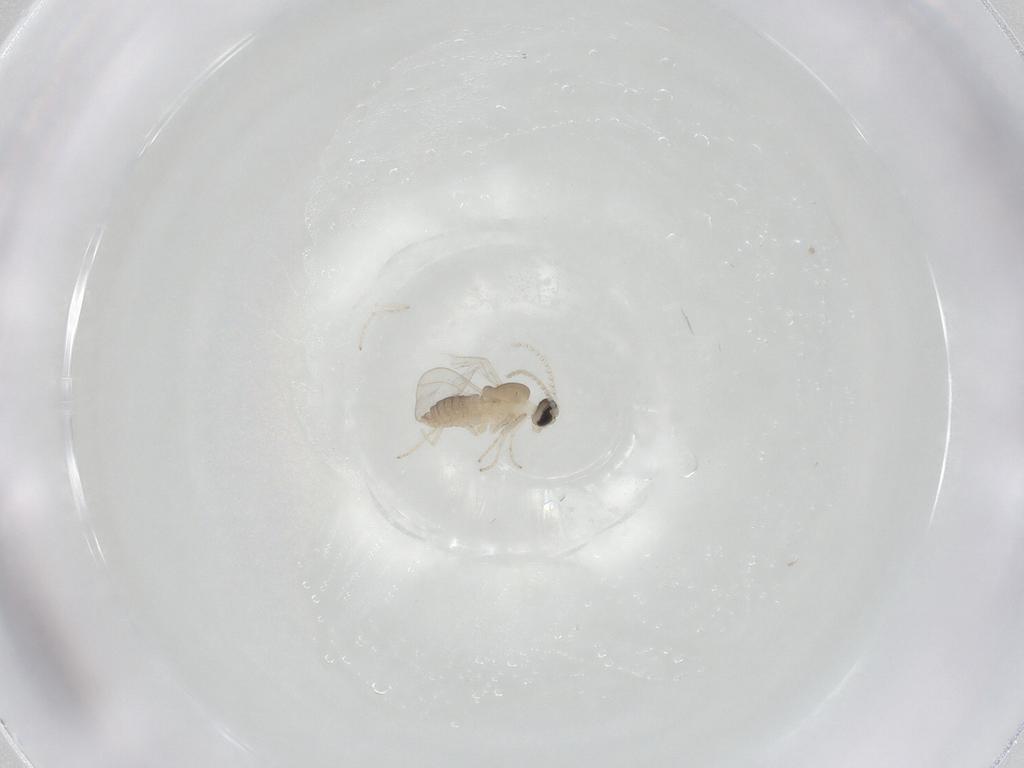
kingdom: Animalia
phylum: Arthropoda
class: Insecta
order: Diptera
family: Cecidomyiidae
